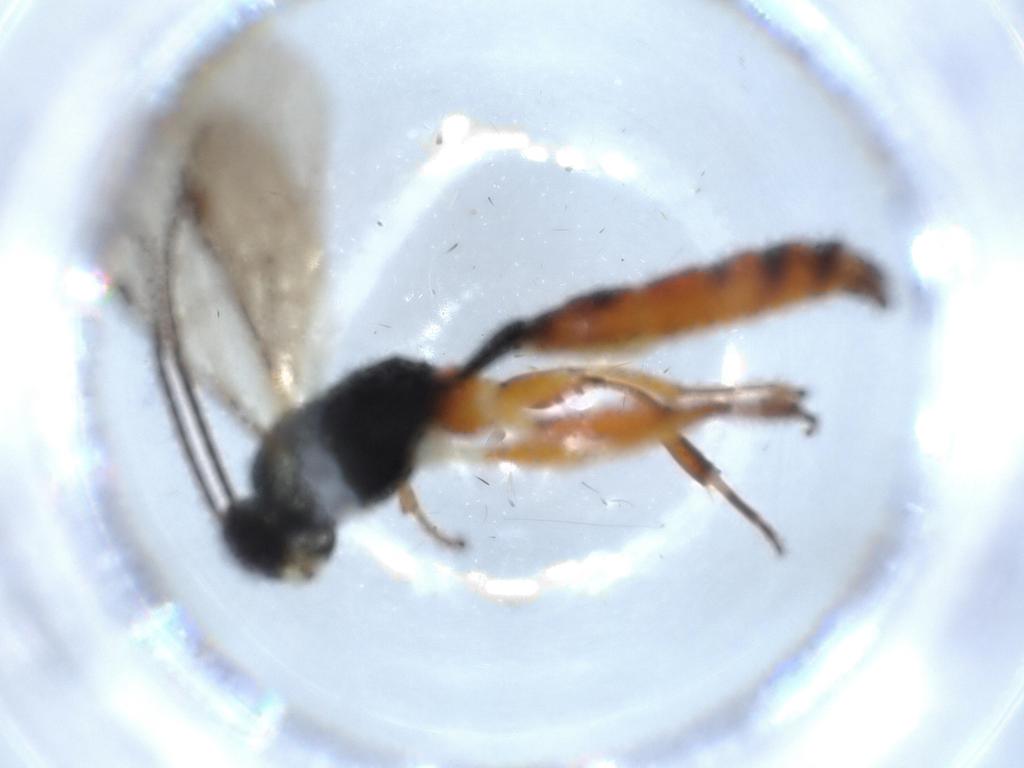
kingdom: Animalia
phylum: Arthropoda
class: Insecta
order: Hymenoptera
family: Ichneumonidae
